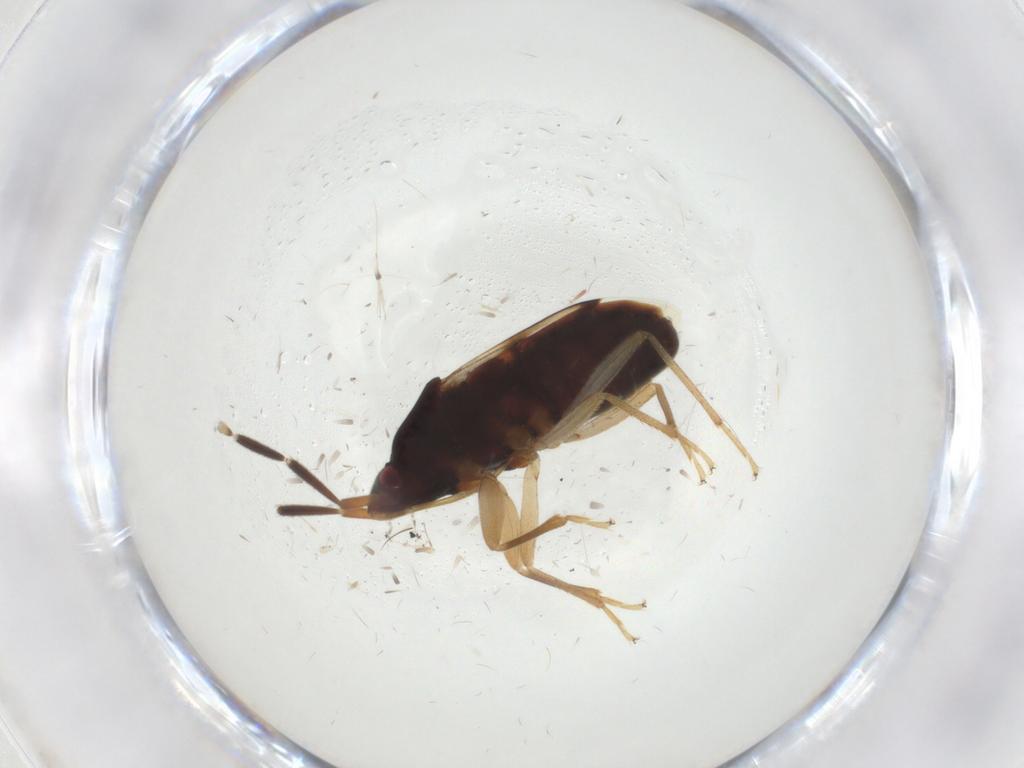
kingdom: Animalia
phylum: Arthropoda
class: Insecta
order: Hemiptera
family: Rhyparochromidae
